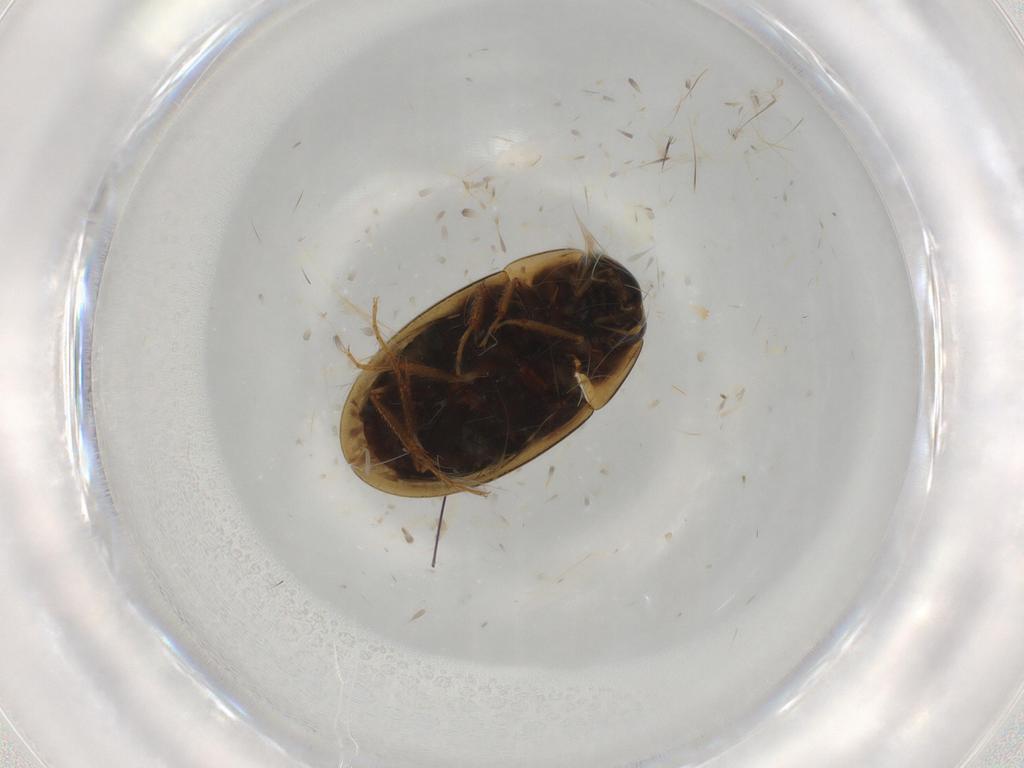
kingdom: Animalia
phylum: Arthropoda
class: Insecta
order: Coleoptera
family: Hydrophilidae
